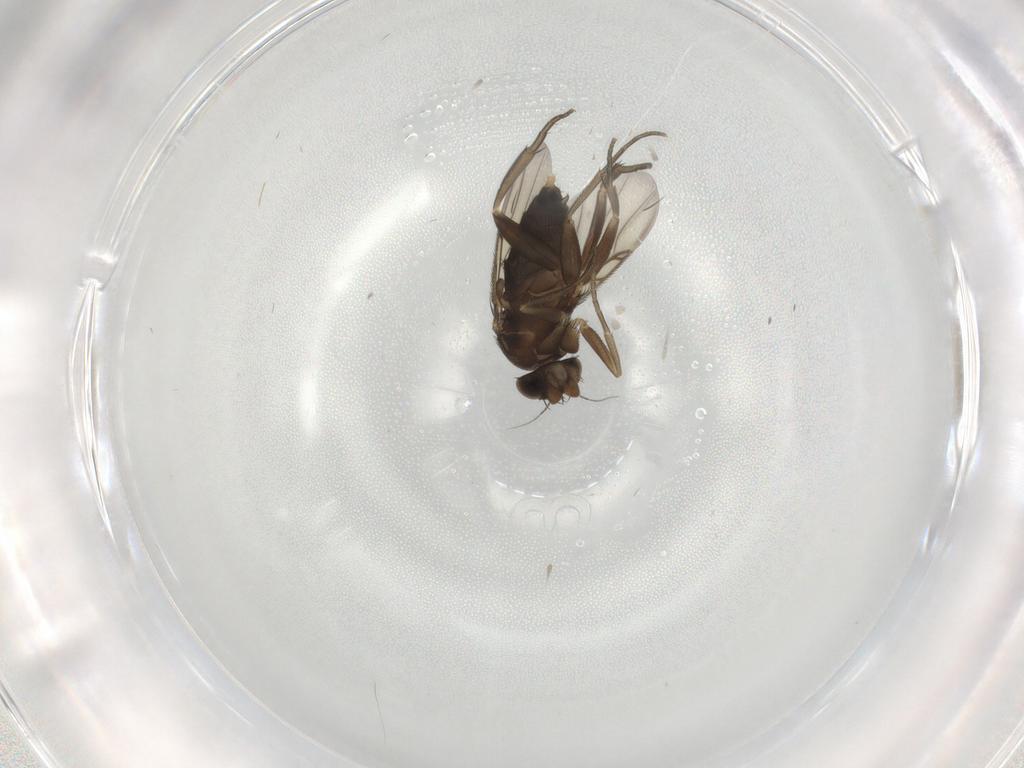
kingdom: Animalia
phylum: Arthropoda
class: Insecta
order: Diptera
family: Phoridae
